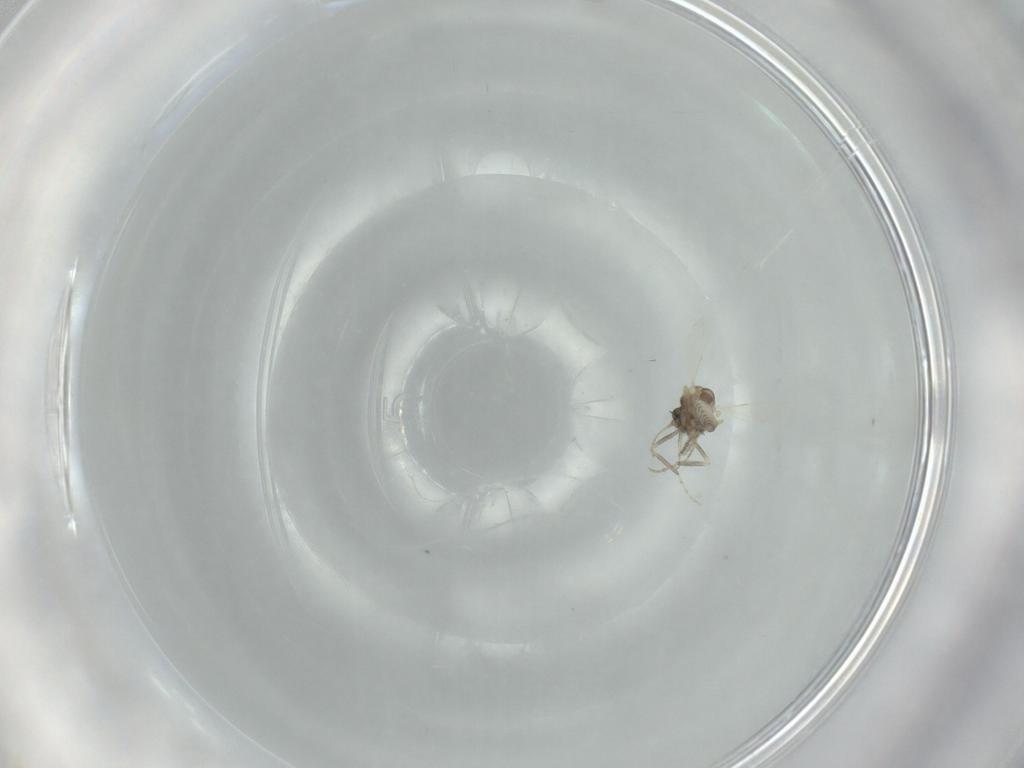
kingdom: Animalia
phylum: Arthropoda
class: Insecta
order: Diptera
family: Ceratopogonidae
